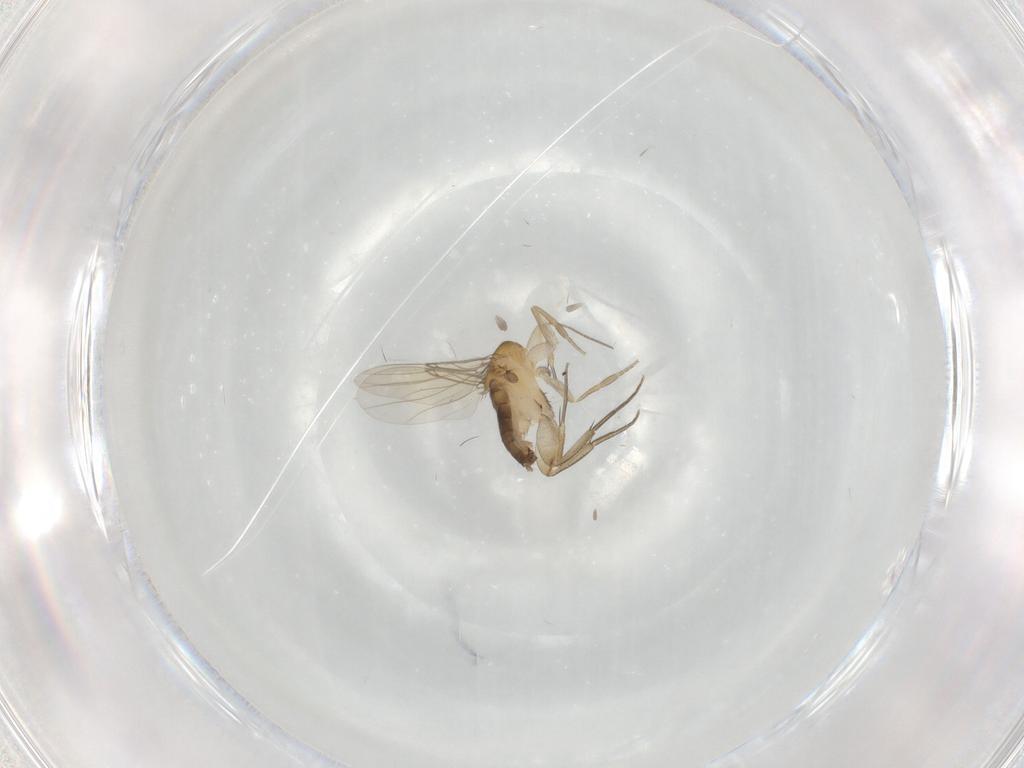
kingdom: Animalia
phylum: Arthropoda
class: Insecta
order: Diptera
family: Phoridae
